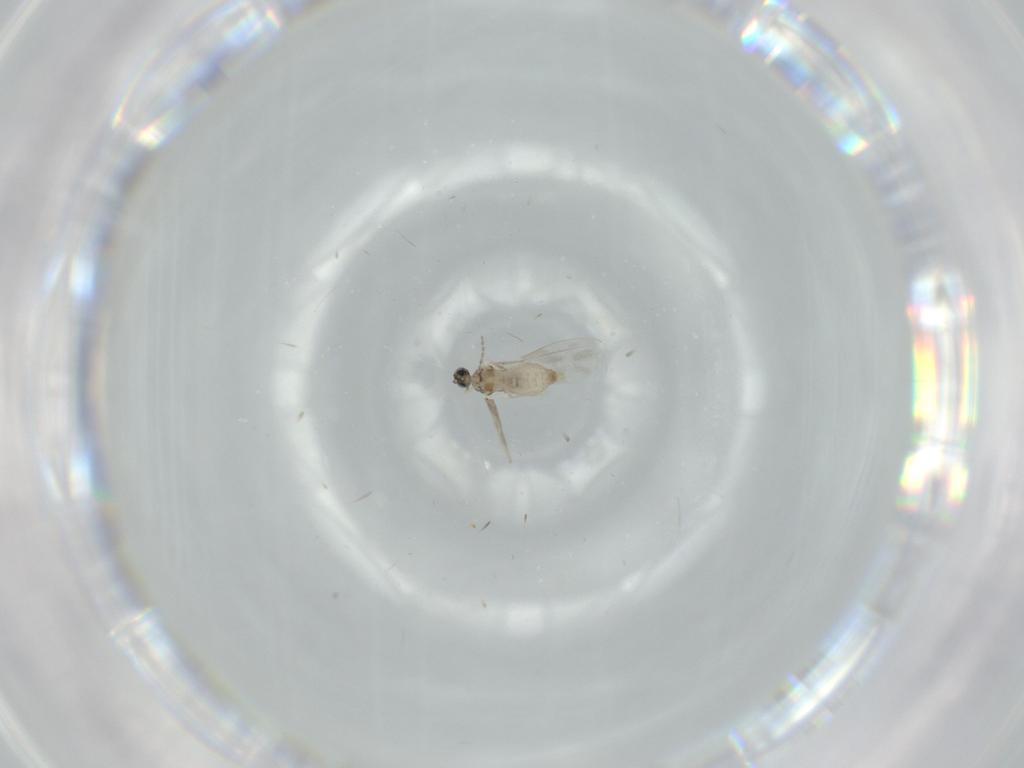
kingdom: Animalia
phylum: Arthropoda
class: Insecta
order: Diptera
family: Cecidomyiidae
